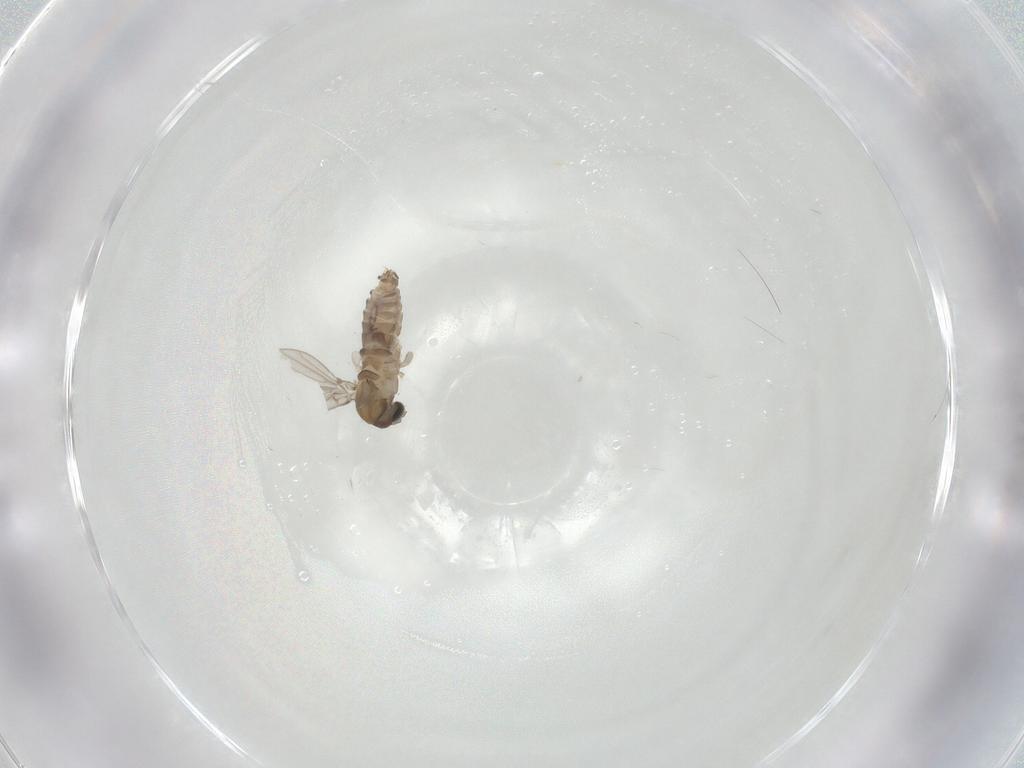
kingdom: Animalia
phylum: Arthropoda
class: Insecta
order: Diptera
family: Psychodidae
